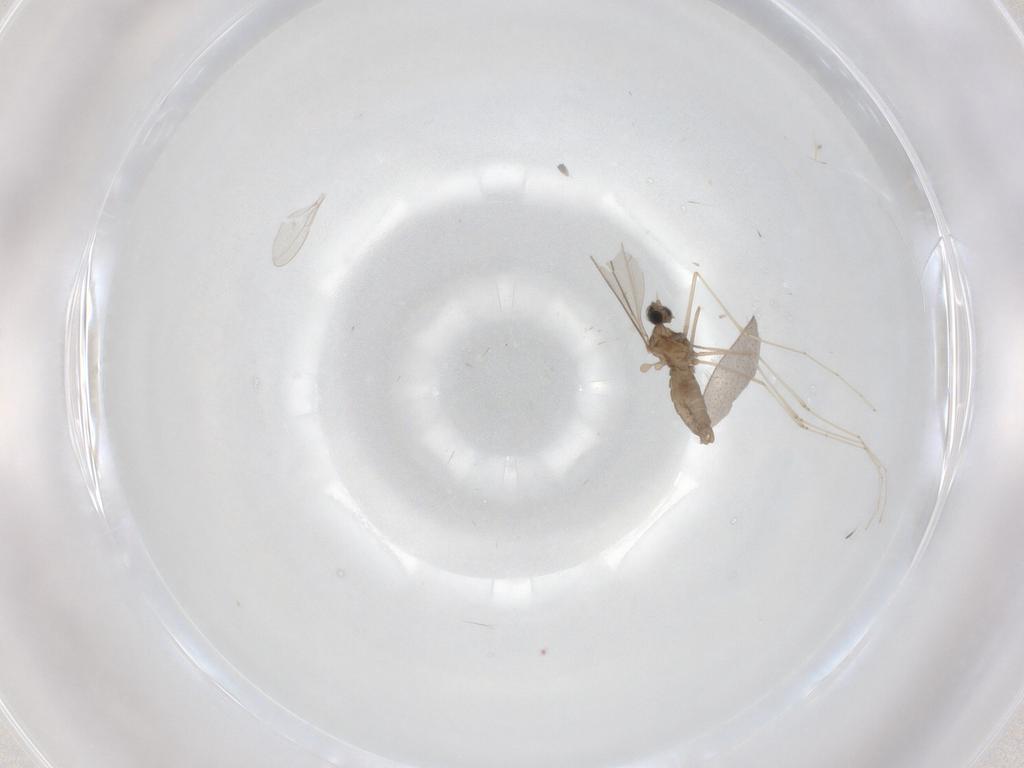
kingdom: Animalia
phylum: Arthropoda
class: Insecta
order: Diptera
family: Cecidomyiidae
